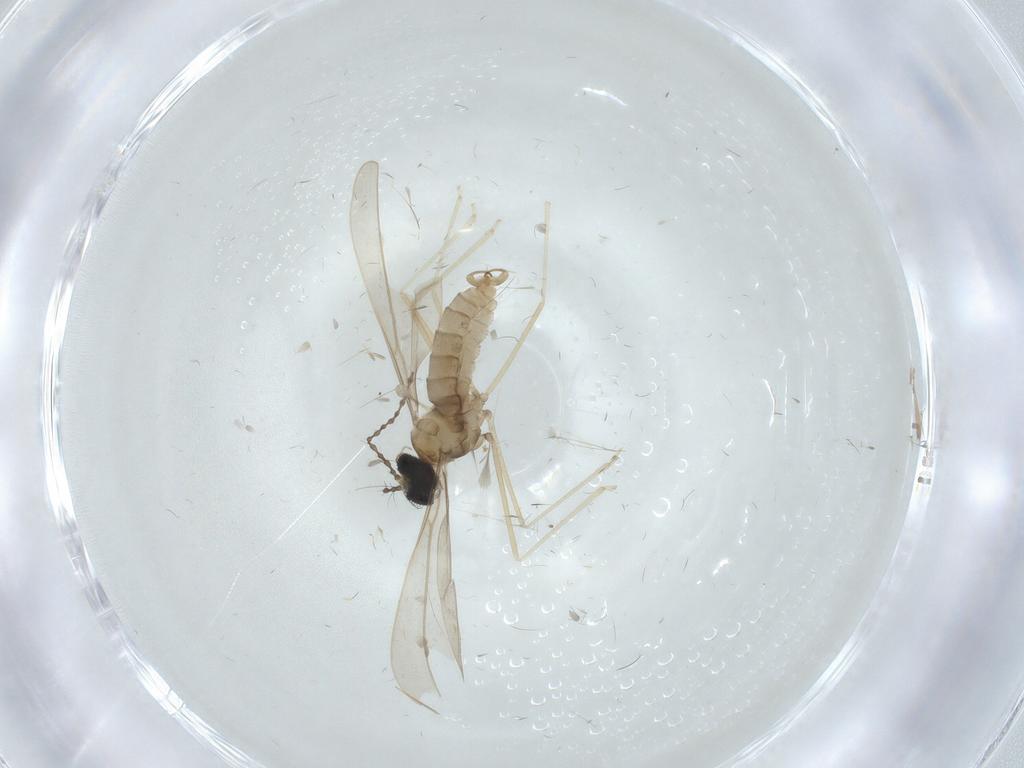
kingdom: Animalia
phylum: Arthropoda
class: Insecta
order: Diptera
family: Cecidomyiidae
